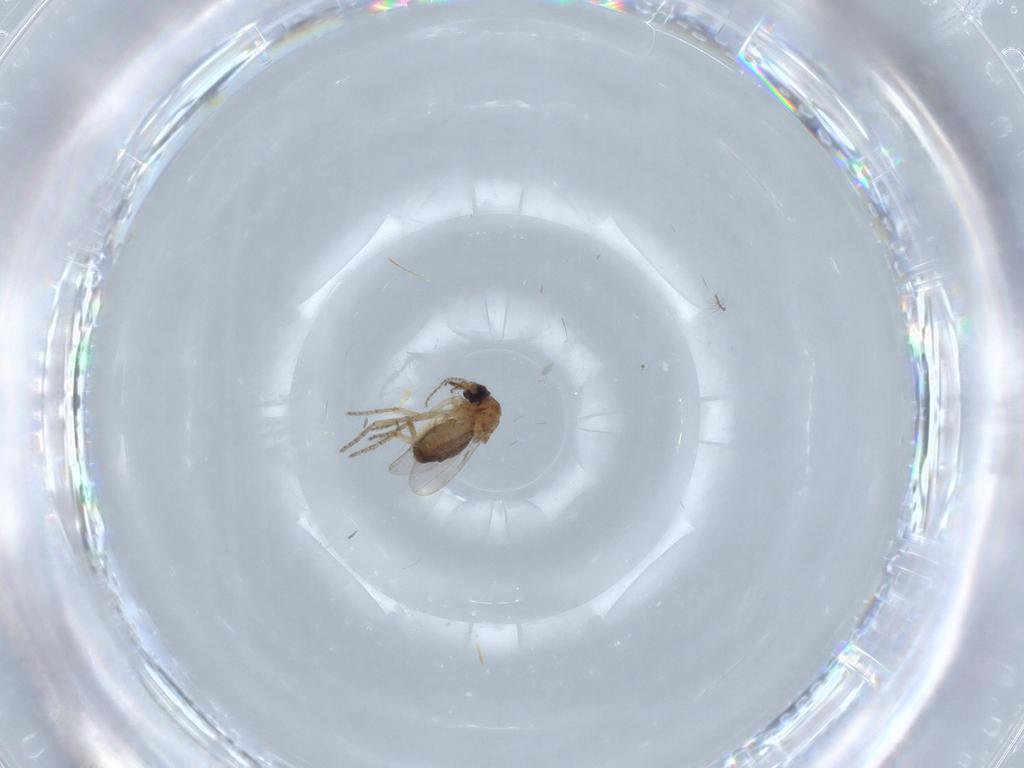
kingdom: Animalia
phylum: Arthropoda
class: Insecta
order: Diptera
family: Ceratopogonidae
